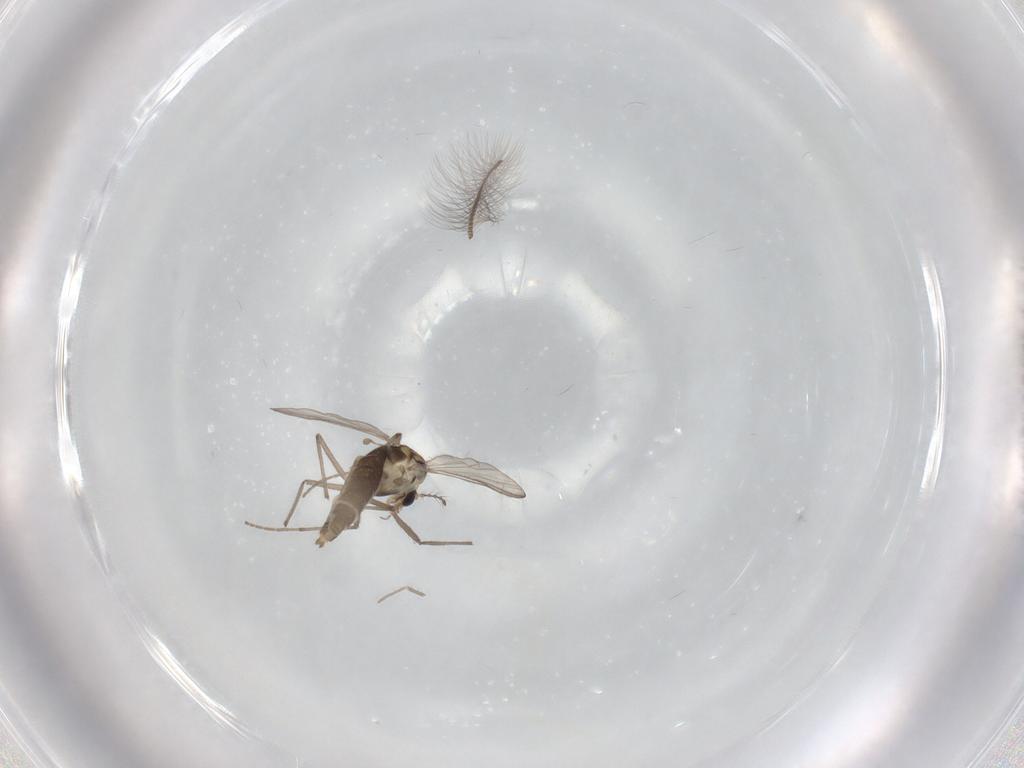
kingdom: Animalia
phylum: Arthropoda
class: Insecta
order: Diptera
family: Chironomidae
